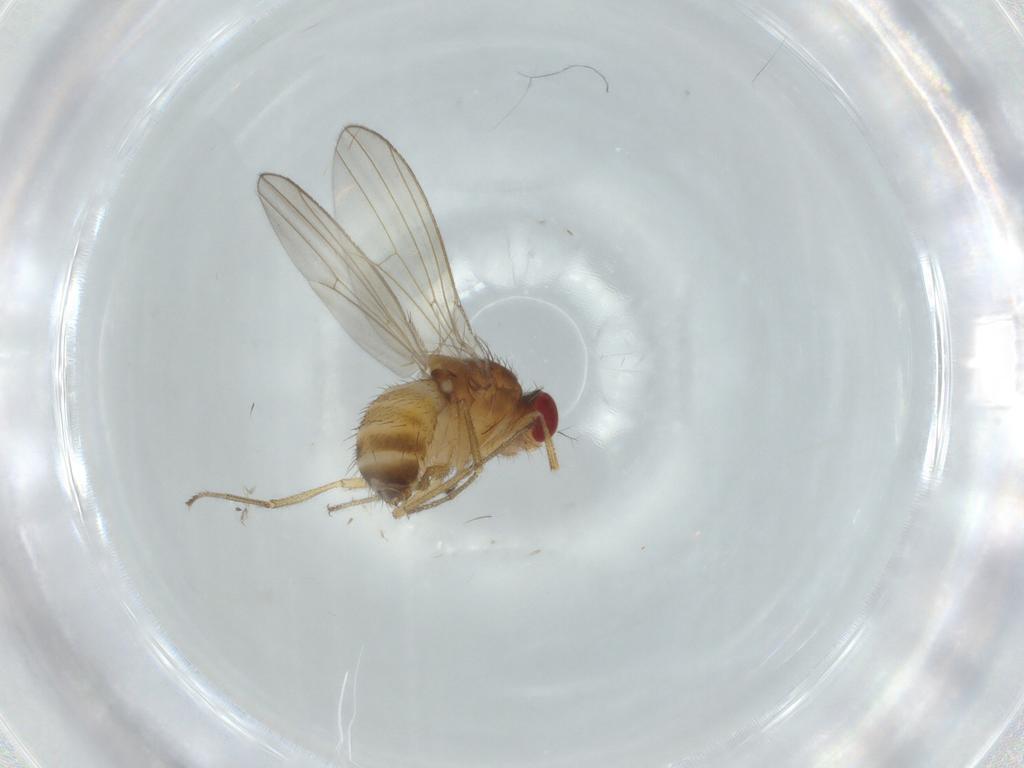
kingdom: Animalia
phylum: Arthropoda
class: Insecta
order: Diptera
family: Drosophilidae
